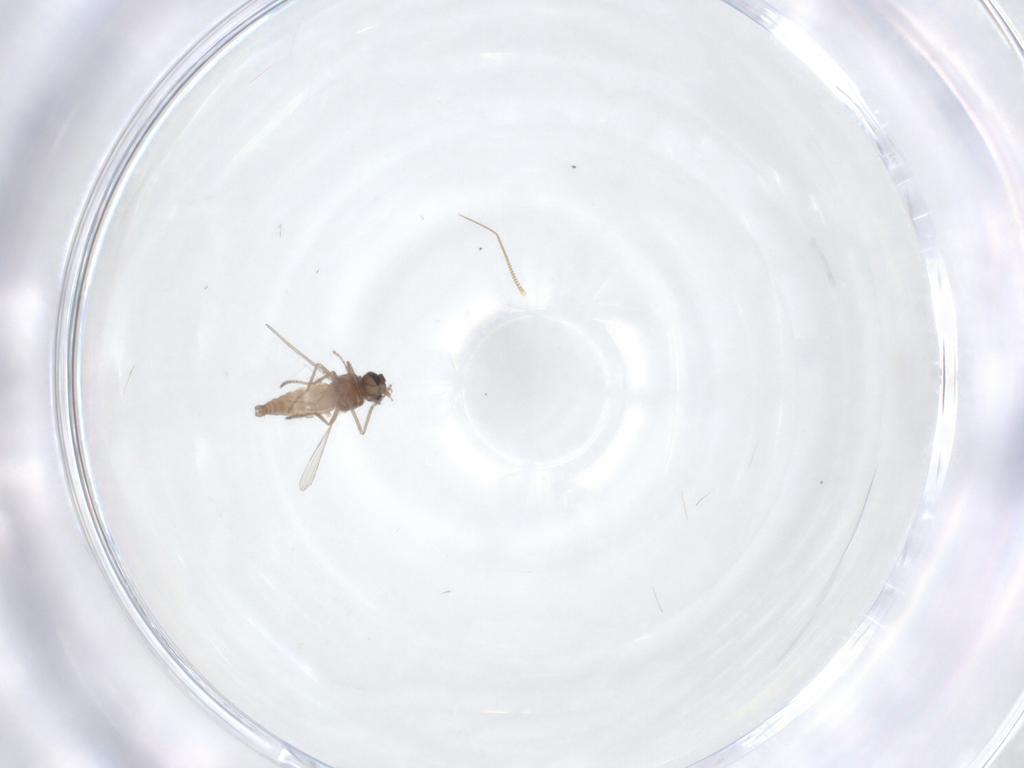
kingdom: Animalia
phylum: Arthropoda
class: Insecta
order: Diptera
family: Ceratopogonidae
